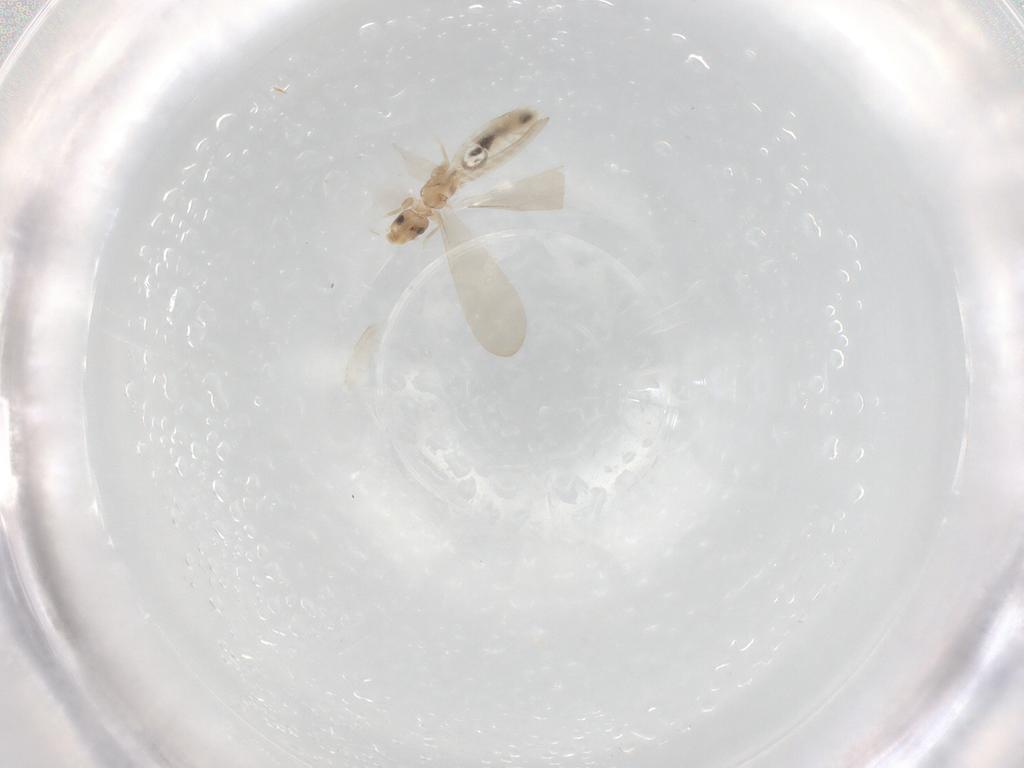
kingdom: Animalia
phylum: Arthropoda
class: Insecta
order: Psocodea
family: Liposcelididae
